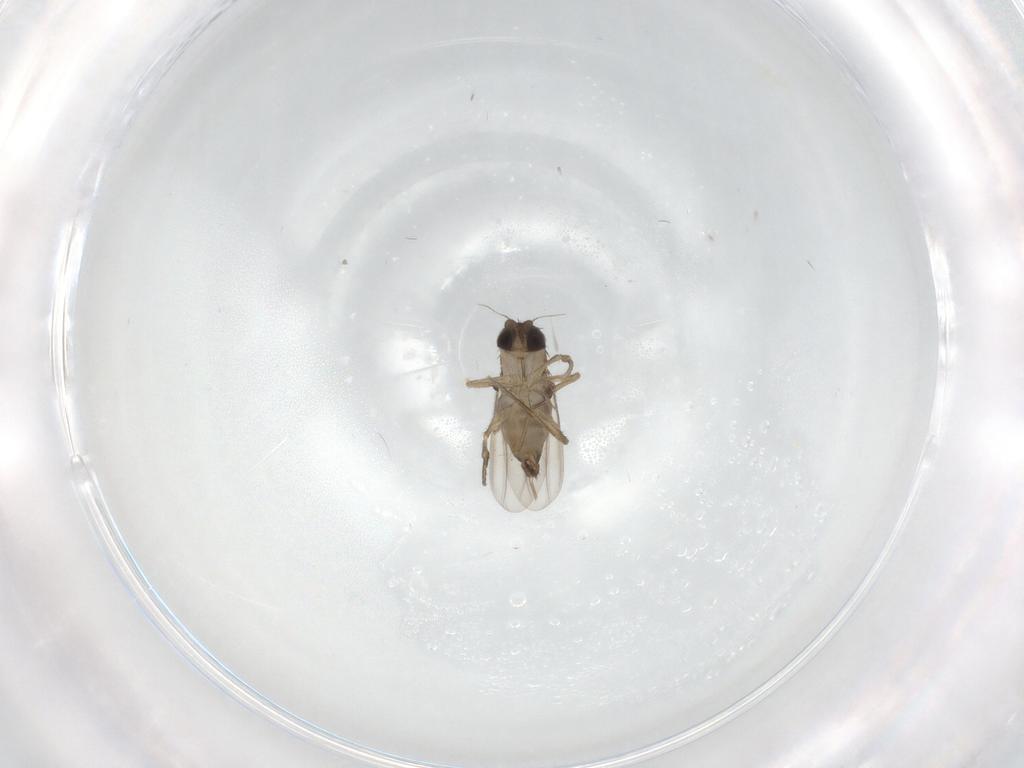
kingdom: Animalia
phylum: Arthropoda
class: Insecta
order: Diptera
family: Phoridae
